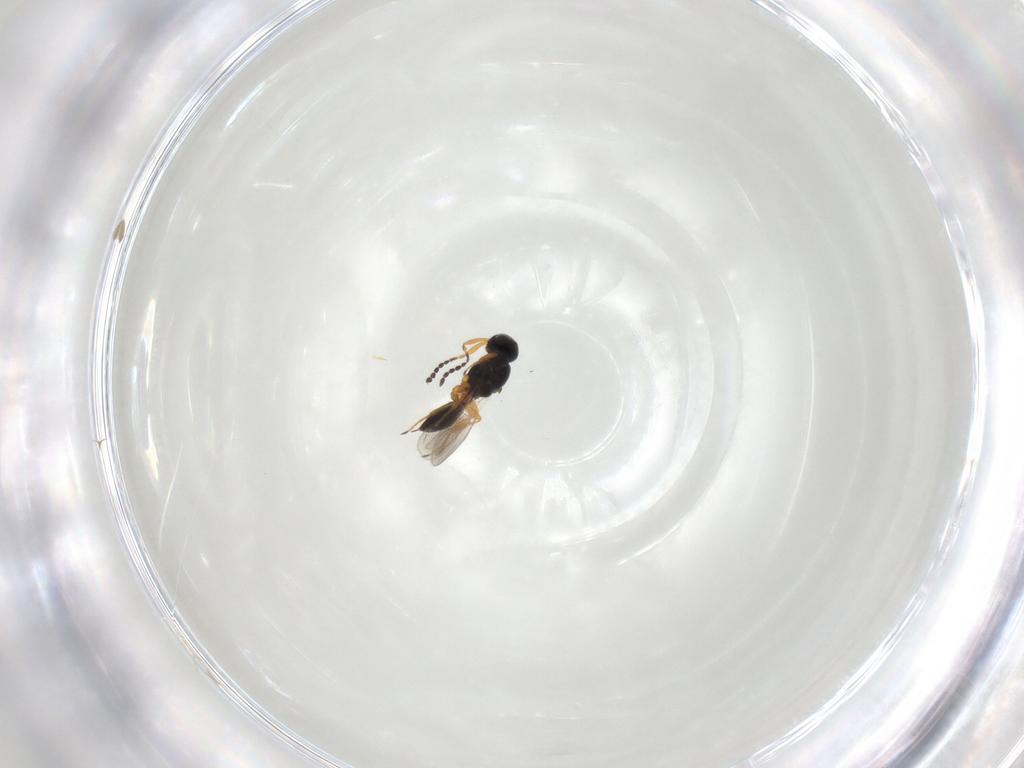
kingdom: Animalia
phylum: Arthropoda
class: Insecta
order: Hymenoptera
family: Platygastridae
